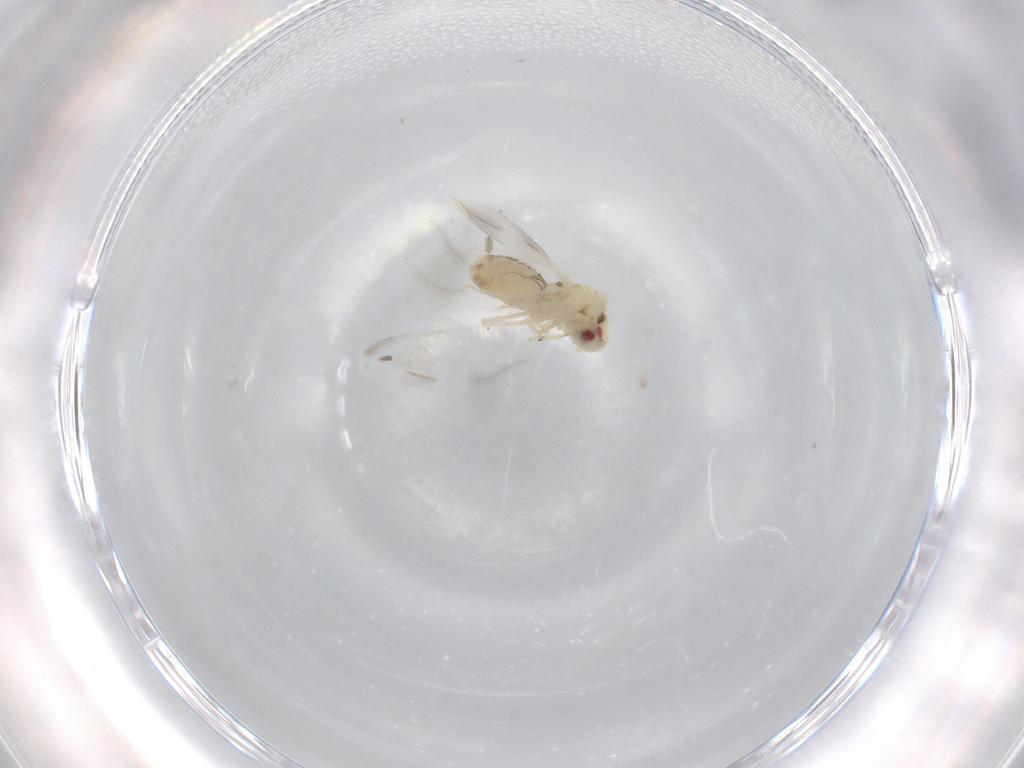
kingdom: Animalia
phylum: Arthropoda
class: Insecta
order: Hemiptera
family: Aleyrodidae
